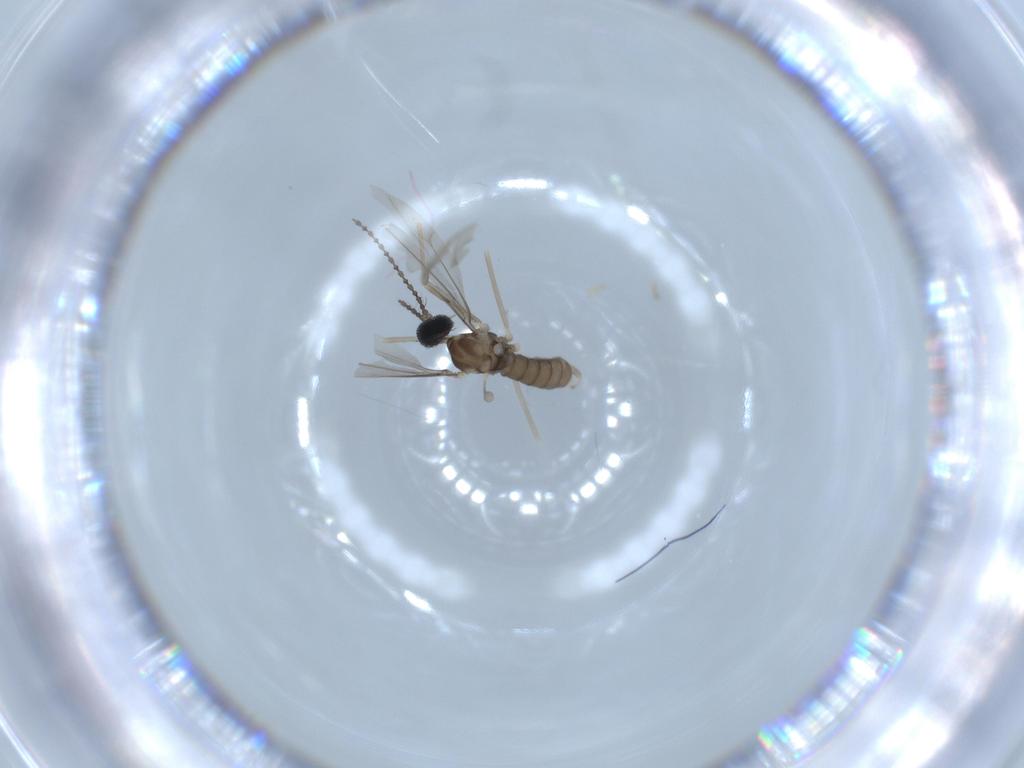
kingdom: Animalia
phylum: Arthropoda
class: Insecta
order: Diptera
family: Cecidomyiidae
